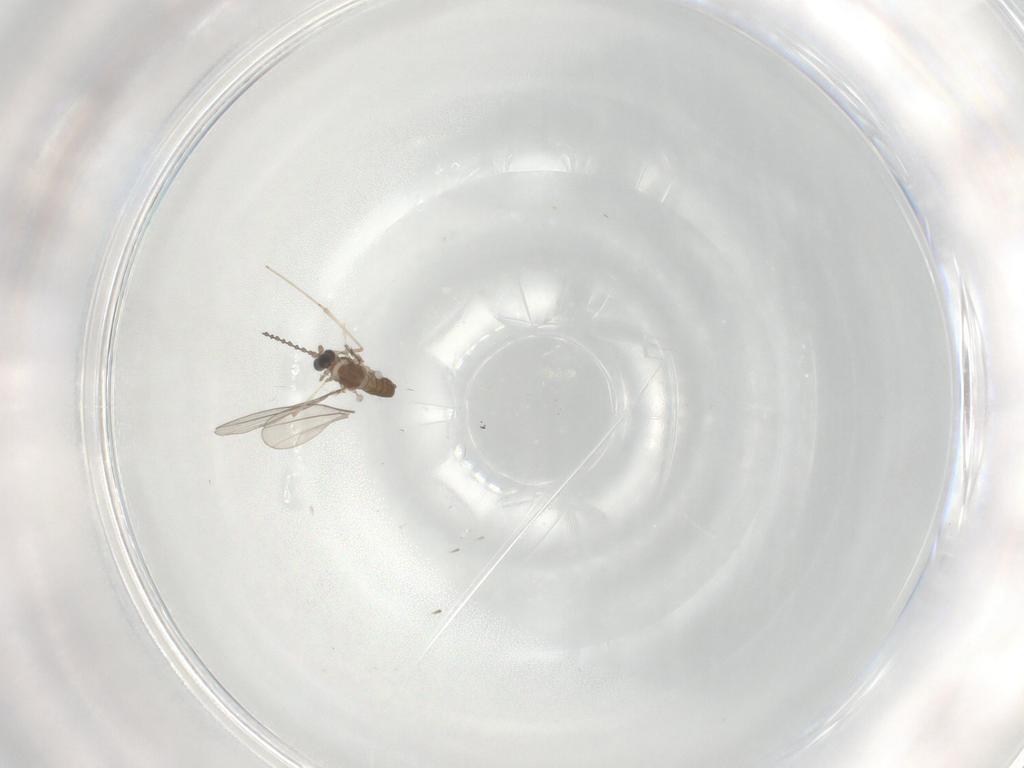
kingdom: Animalia
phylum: Arthropoda
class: Insecta
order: Diptera
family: Cecidomyiidae
